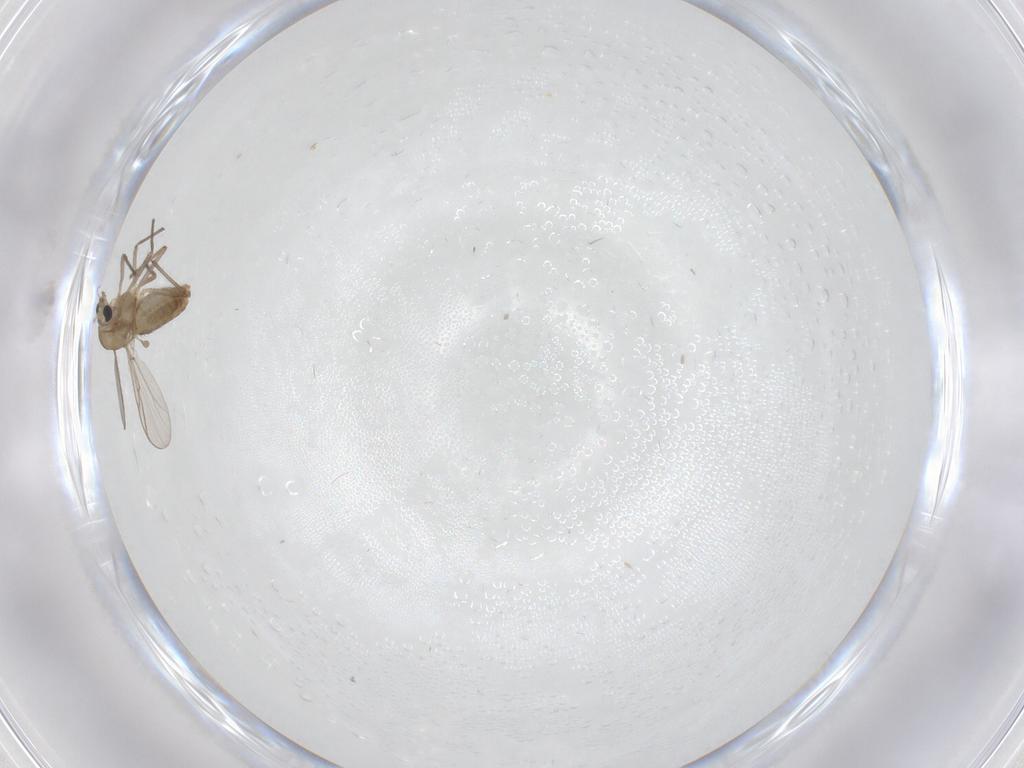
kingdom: Animalia
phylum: Arthropoda
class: Insecta
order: Diptera
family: Chironomidae
